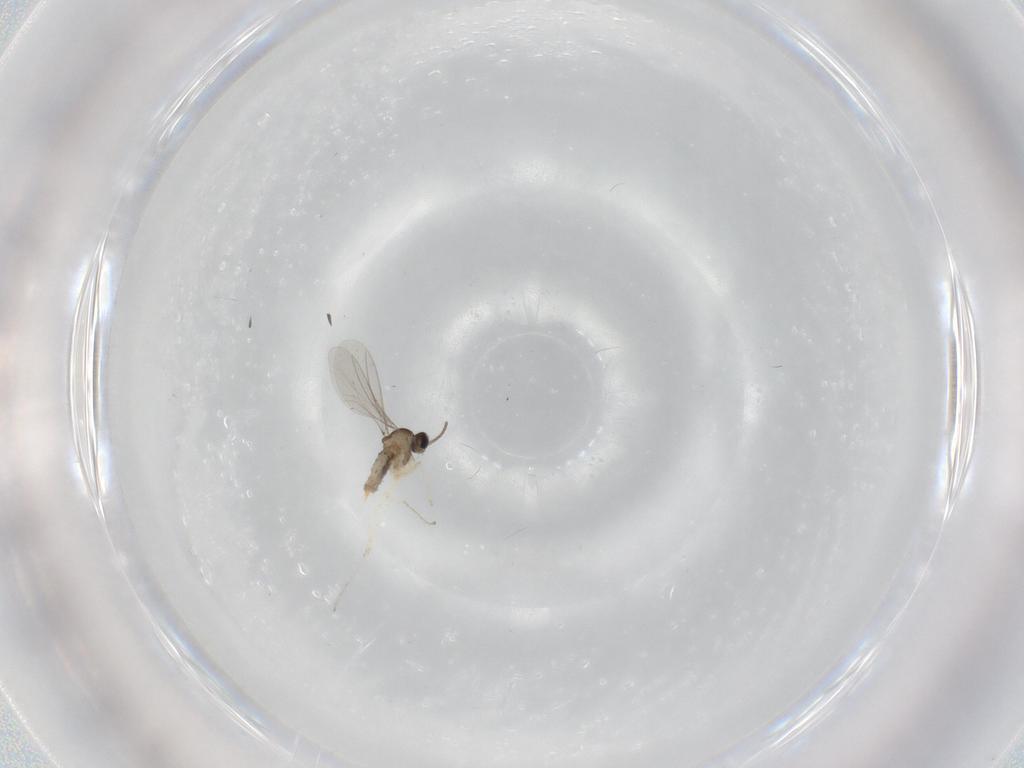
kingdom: Animalia
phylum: Arthropoda
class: Insecta
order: Diptera
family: Cecidomyiidae
